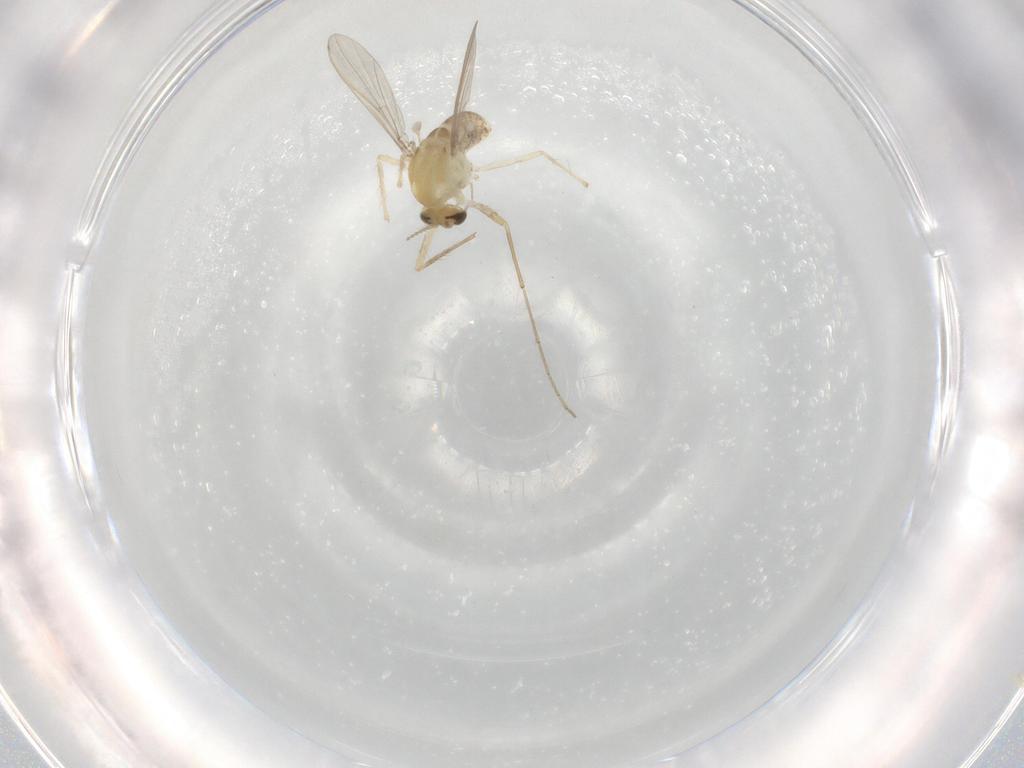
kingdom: Animalia
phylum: Arthropoda
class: Insecta
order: Diptera
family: Chironomidae
